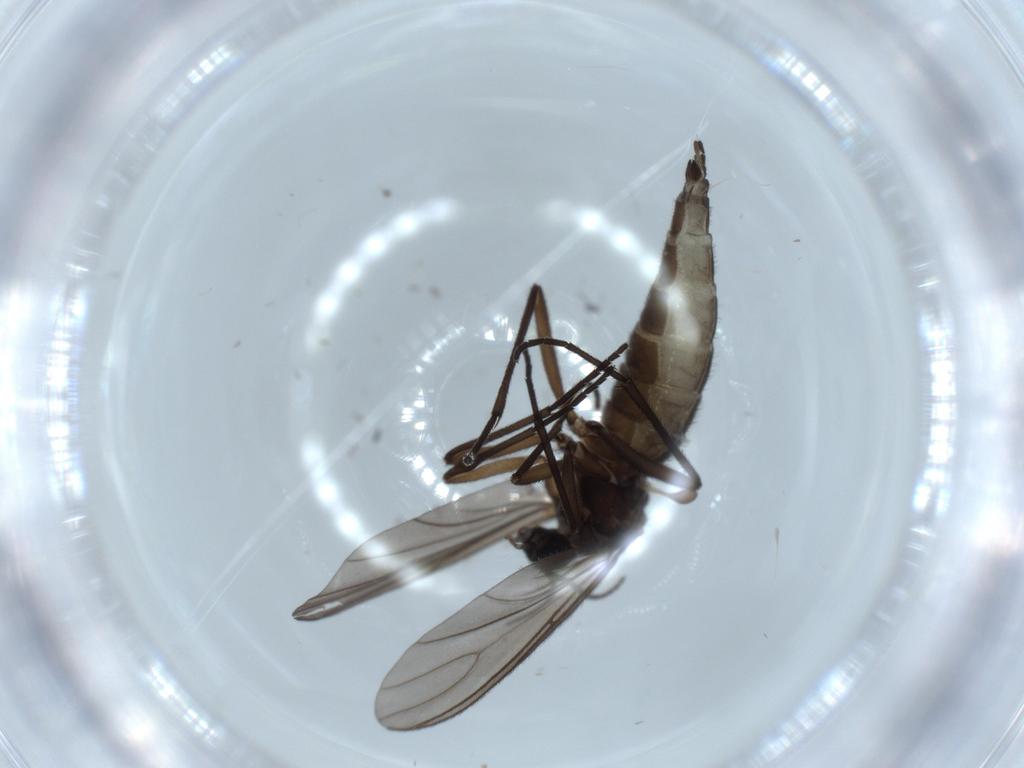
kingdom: Animalia
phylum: Arthropoda
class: Insecta
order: Diptera
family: Sciaridae
